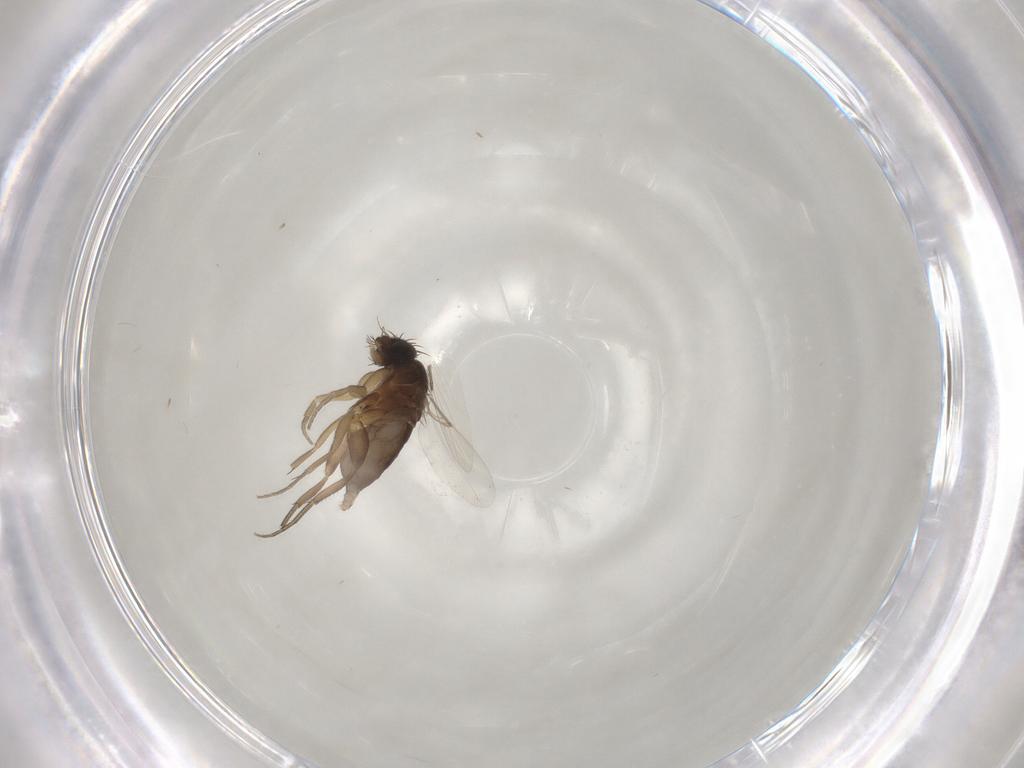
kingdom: Animalia
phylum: Arthropoda
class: Insecta
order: Diptera
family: Phoridae
